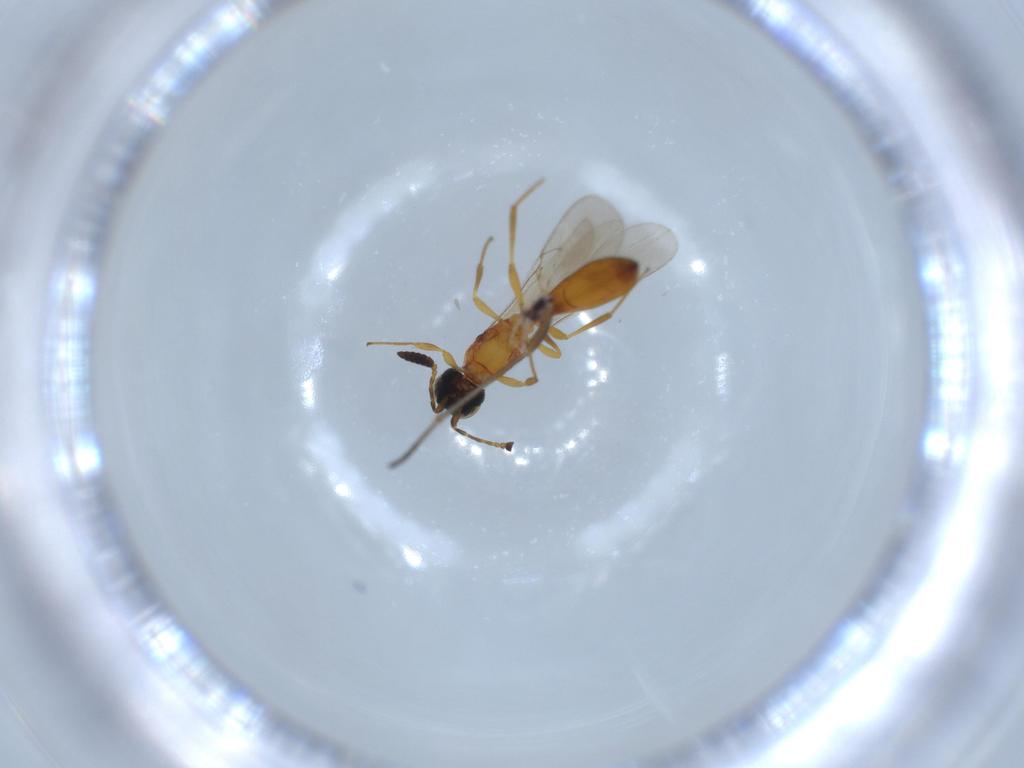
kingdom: Animalia
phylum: Arthropoda
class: Insecta
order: Hymenoptera
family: Formicidae
